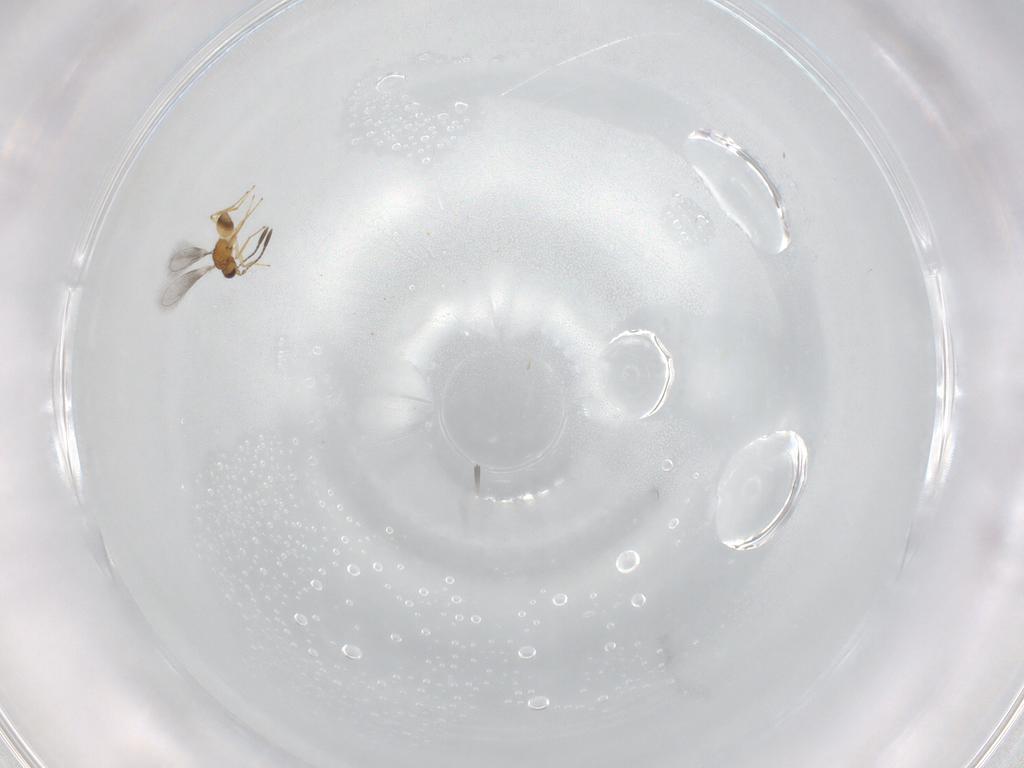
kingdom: Animalia
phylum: Arthropoda
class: Insecta
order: Hymenoptera
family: Mymaridae
